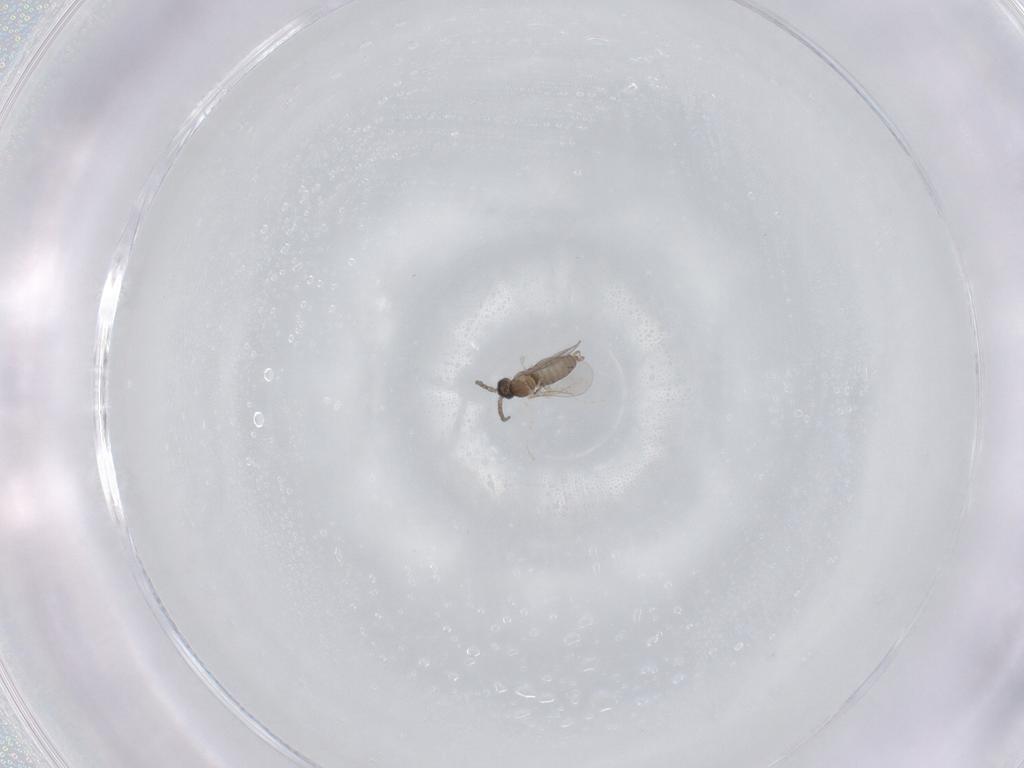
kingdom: Animalia
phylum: Arthropoda
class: Insecta
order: Diptera
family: Cecidomyiidae
